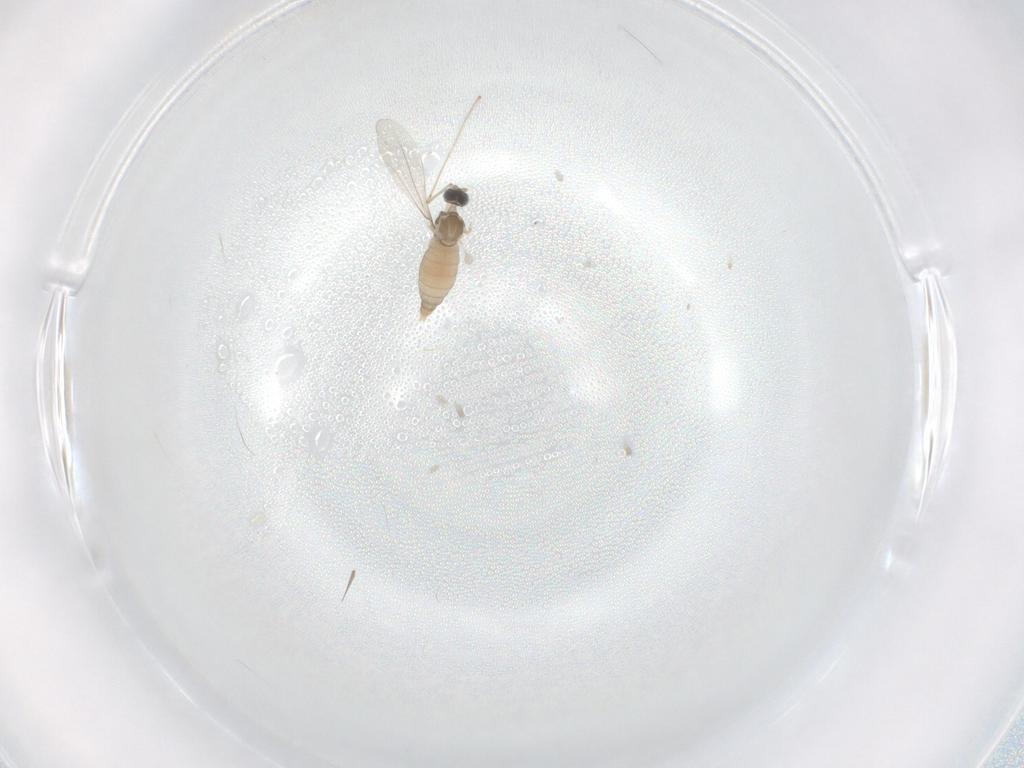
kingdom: Animalia
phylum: Arthropoda
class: Insecta
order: Diptera
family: Cecidomyiidae
